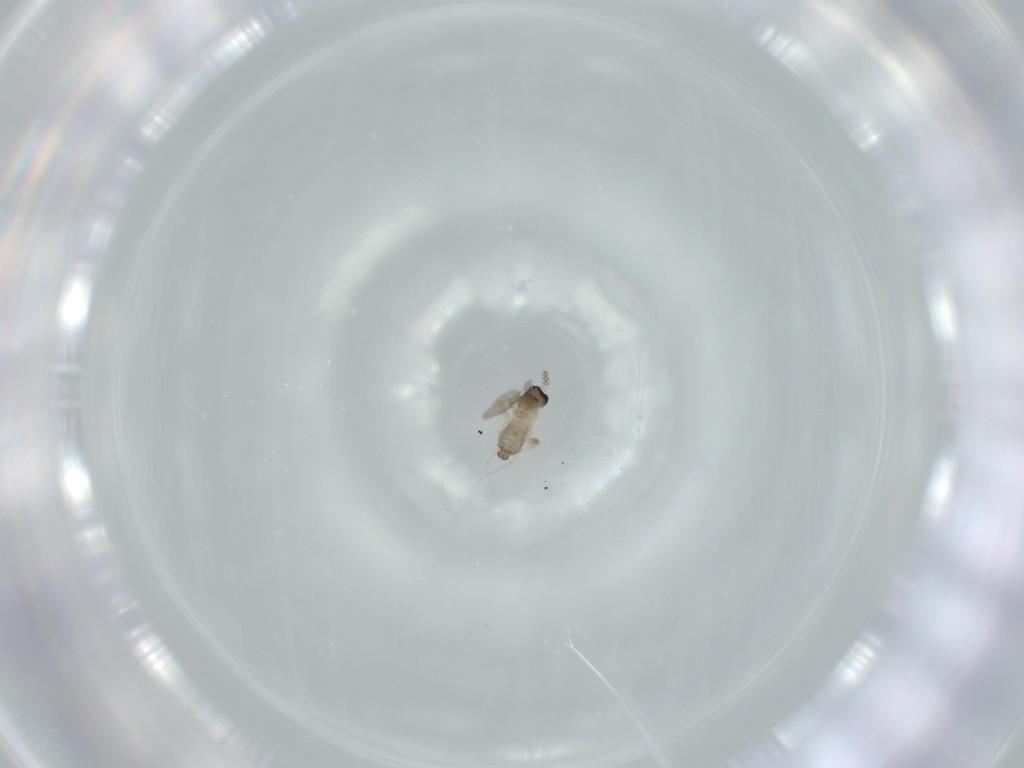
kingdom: Animalia
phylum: Arthropoda
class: Insecta
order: Diptera
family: Cecidomyiidae
